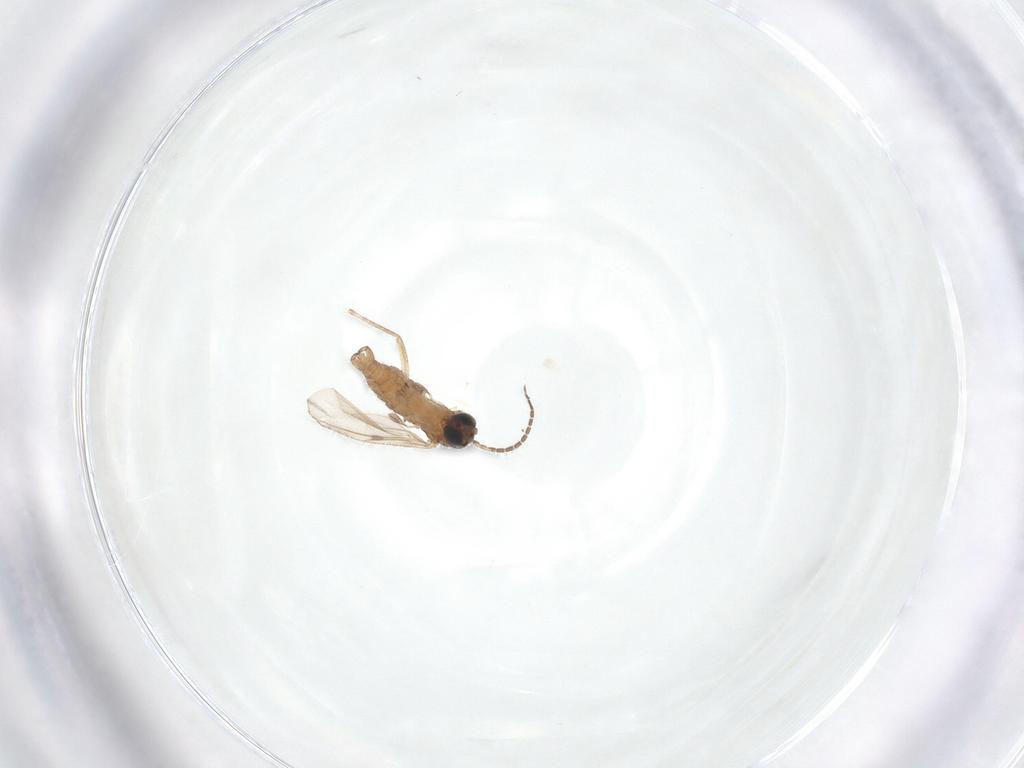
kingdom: Animalia
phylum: Arthropoda
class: Insecta
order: Diptera
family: Sciaridae
